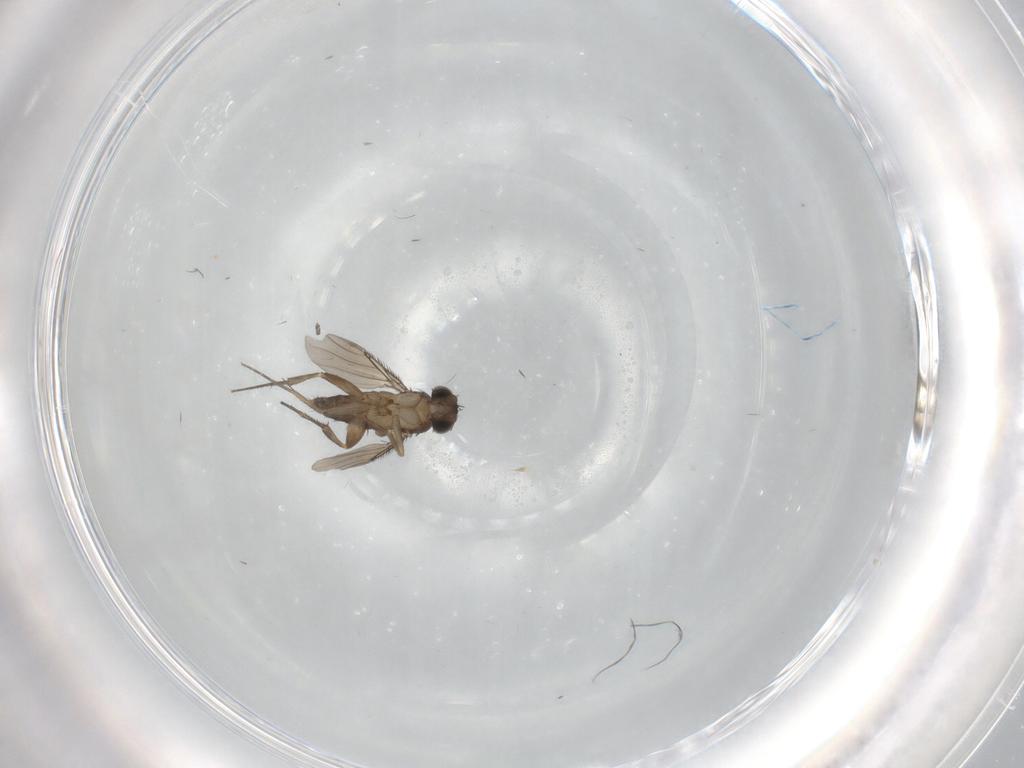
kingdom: Animalia
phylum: Arthropoda
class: Insecta
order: Diptera
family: Phoridae
